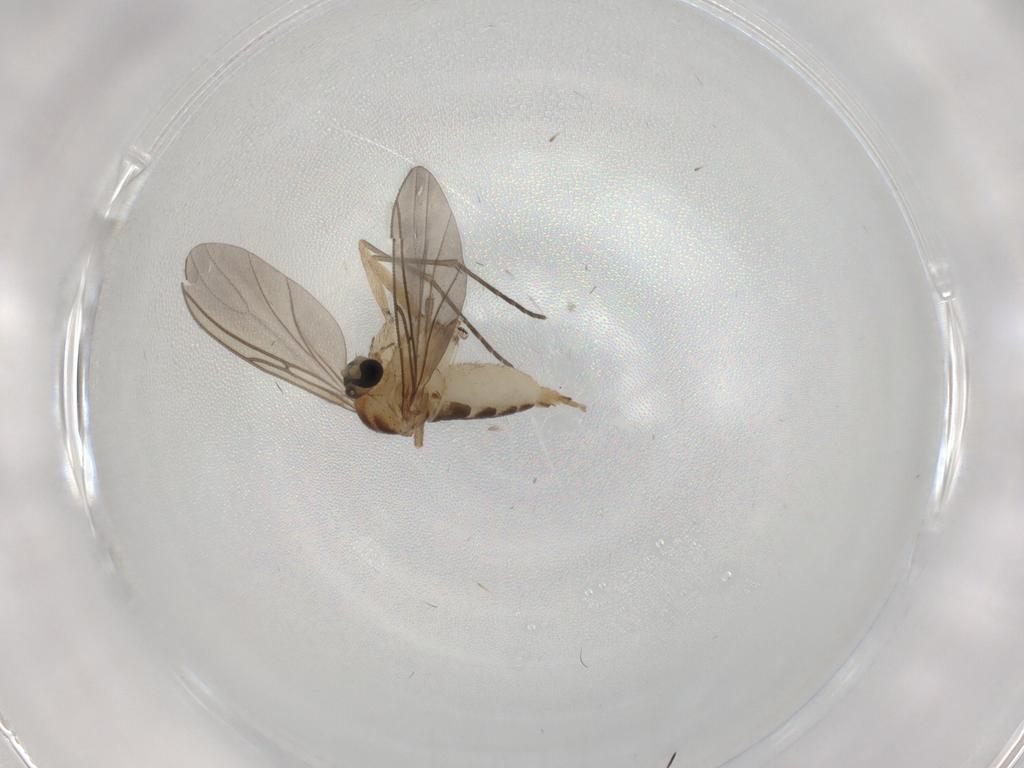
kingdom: Animalia
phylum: Arthropoda
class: Insecta
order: Diptera
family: Sciaridae
